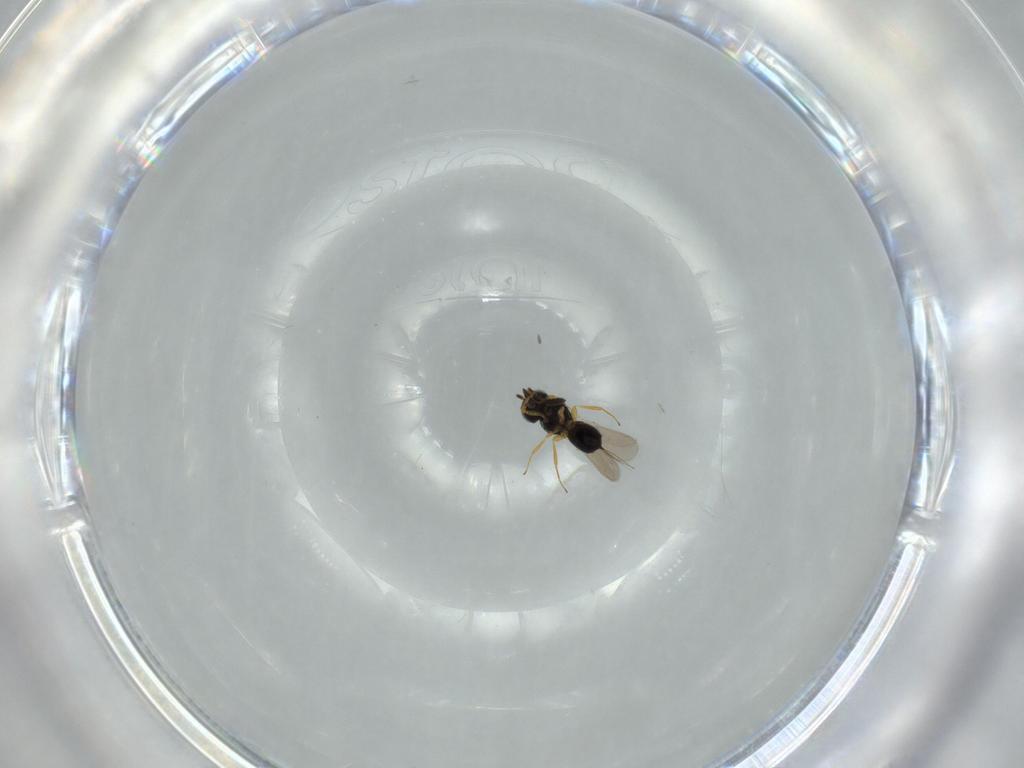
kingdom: Animalia
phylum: Arthropoda
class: Insecta
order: Hymenoptera
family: Scelionidae
